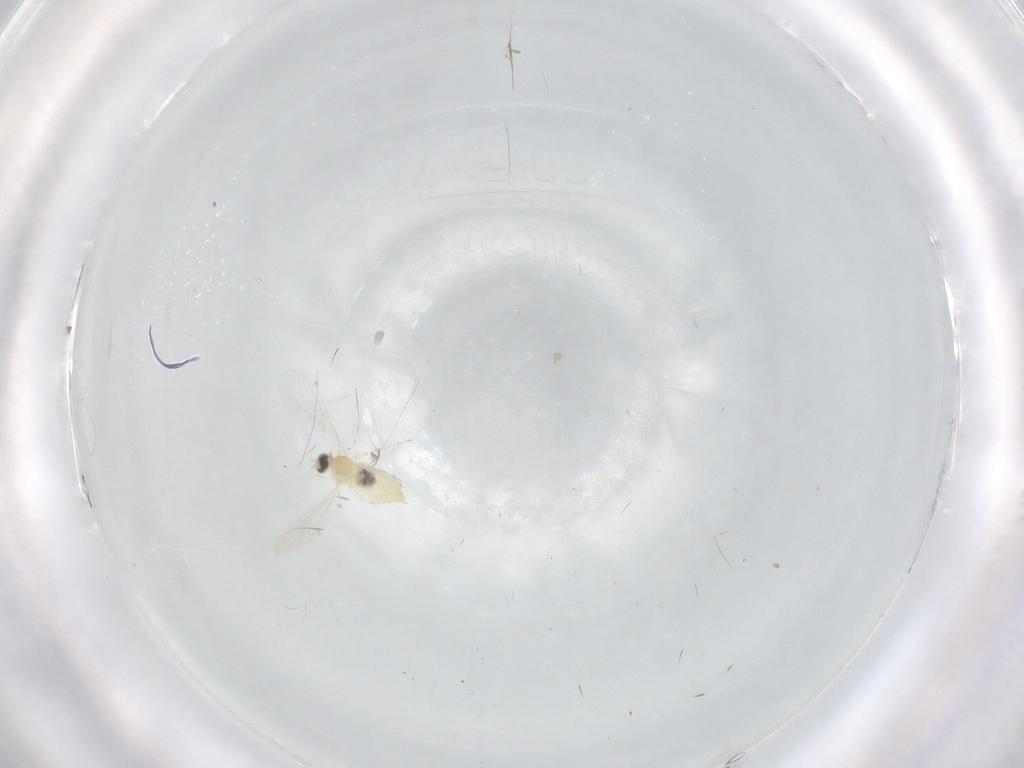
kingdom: Animalia
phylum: Arthropoda
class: Insecta
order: Diptera
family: Cecidomyiidae
